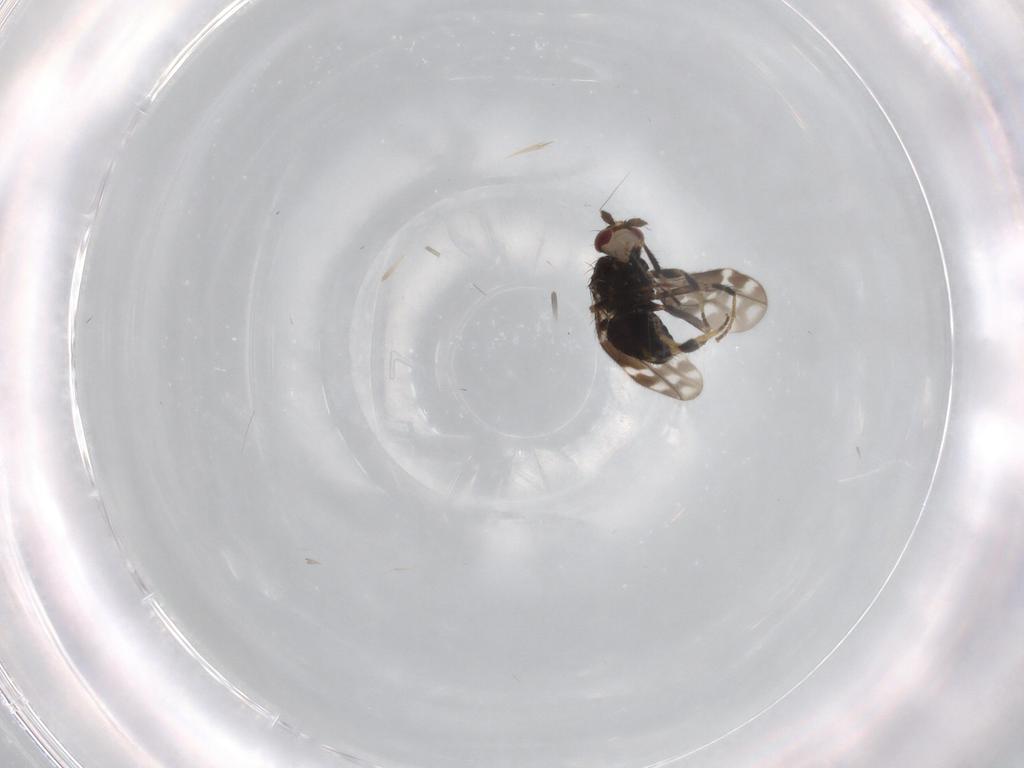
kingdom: Animalia
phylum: Arthropoda
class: Insecta
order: Diptera
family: Sphaeroceridae
